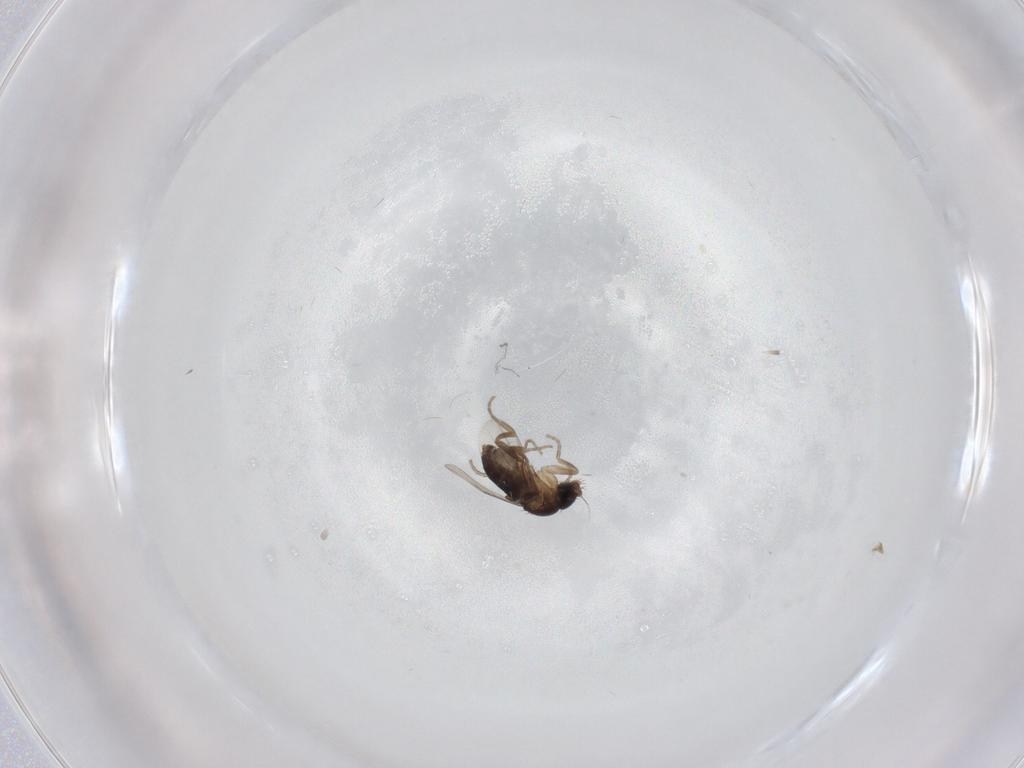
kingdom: Animalia
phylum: Arthropoda
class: Insecta
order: Diptera
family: Phoridae
